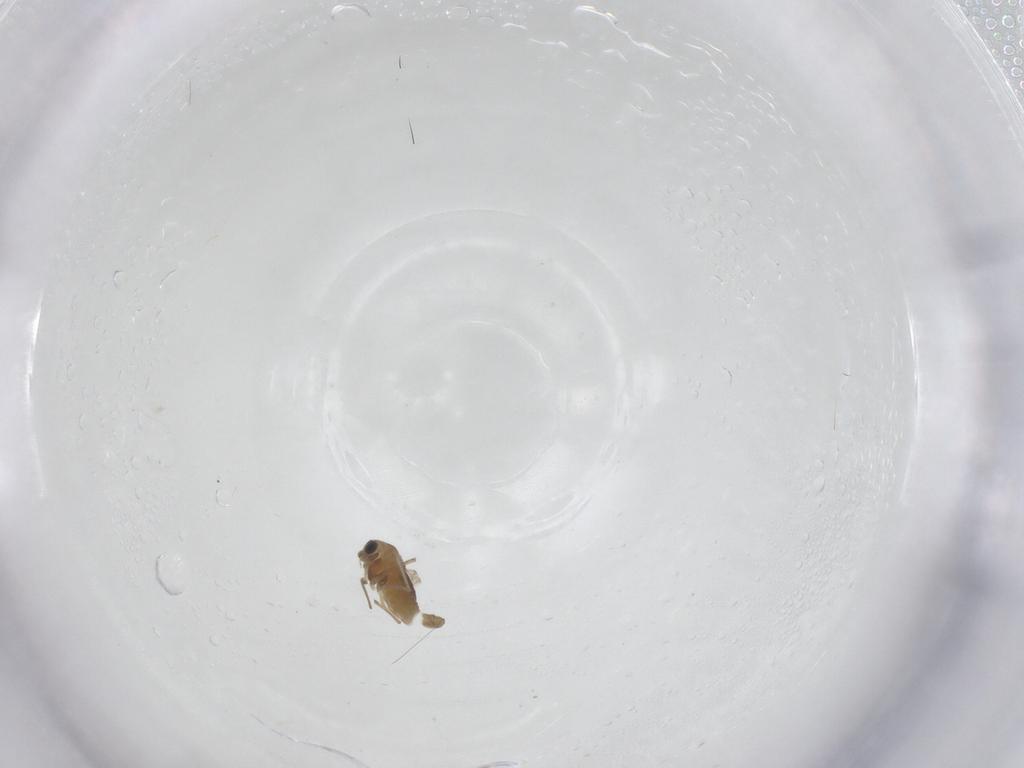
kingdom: Animalia
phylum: Arthropoda
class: Insecta
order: Diptera
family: Chironomidae
